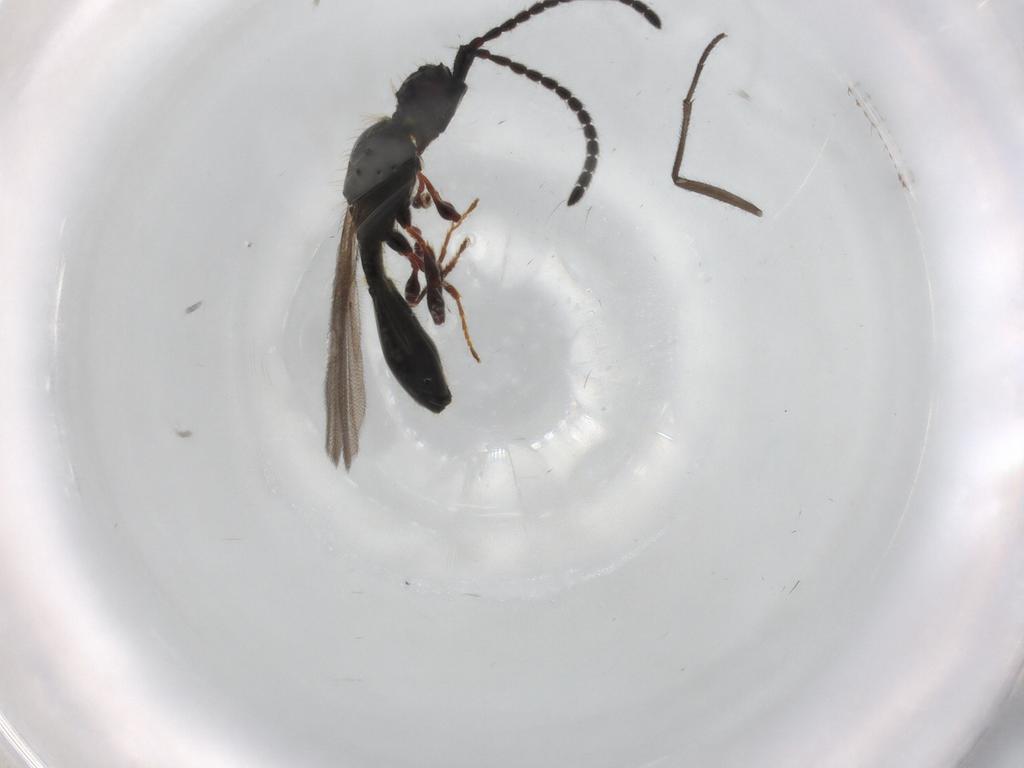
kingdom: Animalia
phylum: Arthropoda
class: Insecta
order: Hymenoptera
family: Diapriidae
